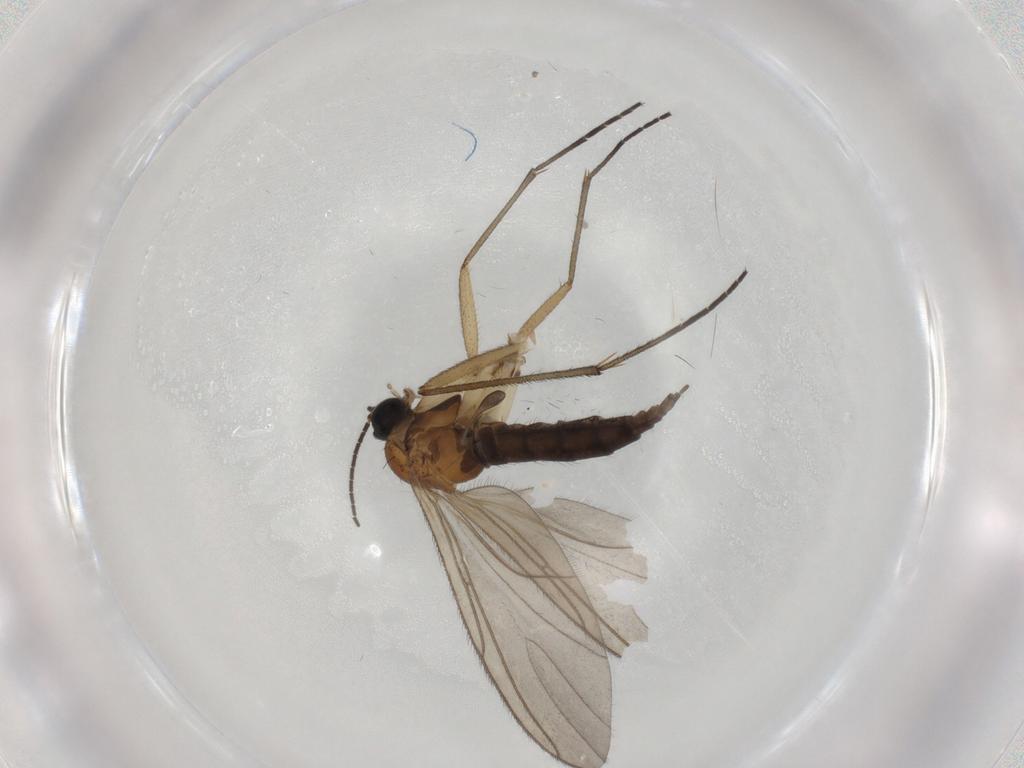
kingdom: Animalia
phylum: Arthropoda
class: Insecta
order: Diptera
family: Sciaridae
